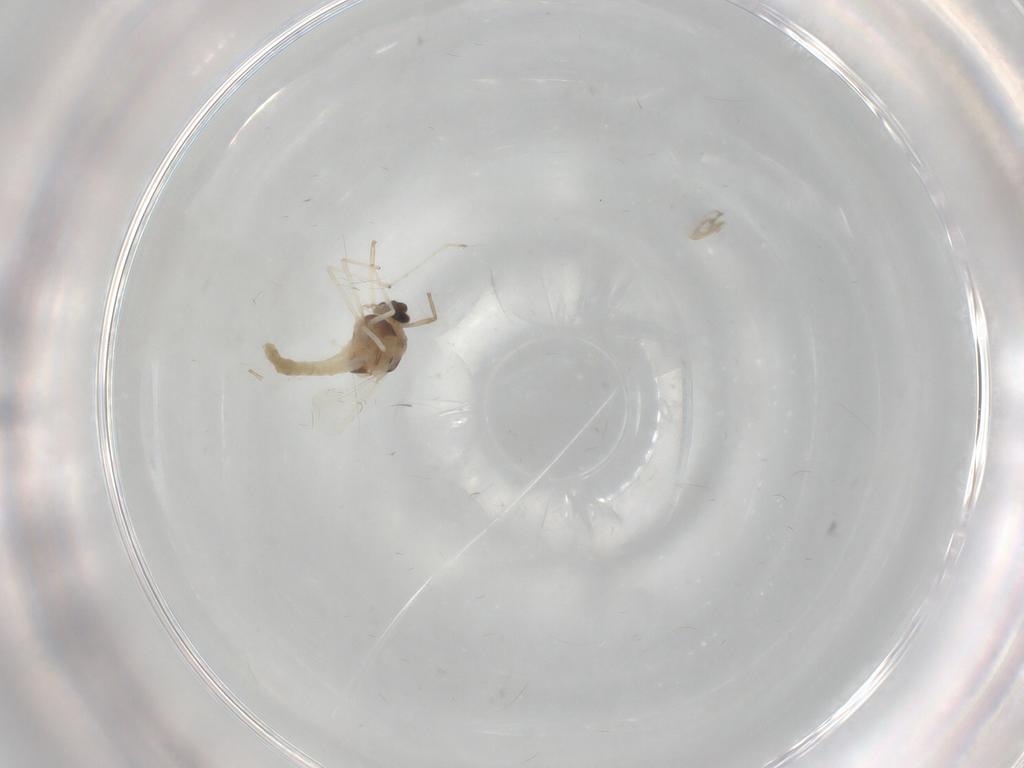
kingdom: Animalia
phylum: Arthropoda
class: Insecta
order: Diptera
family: Chironomidae
